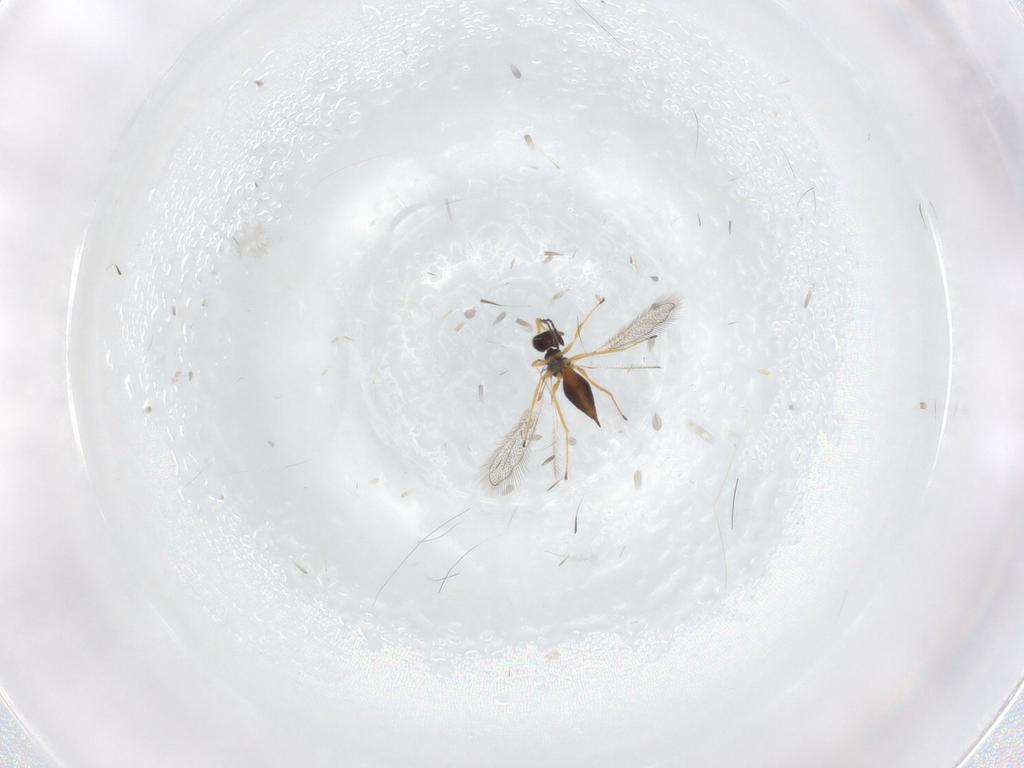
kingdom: Animalia
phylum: Arthropoda
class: Insecta
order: Hymenoptera
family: Mymaridae
